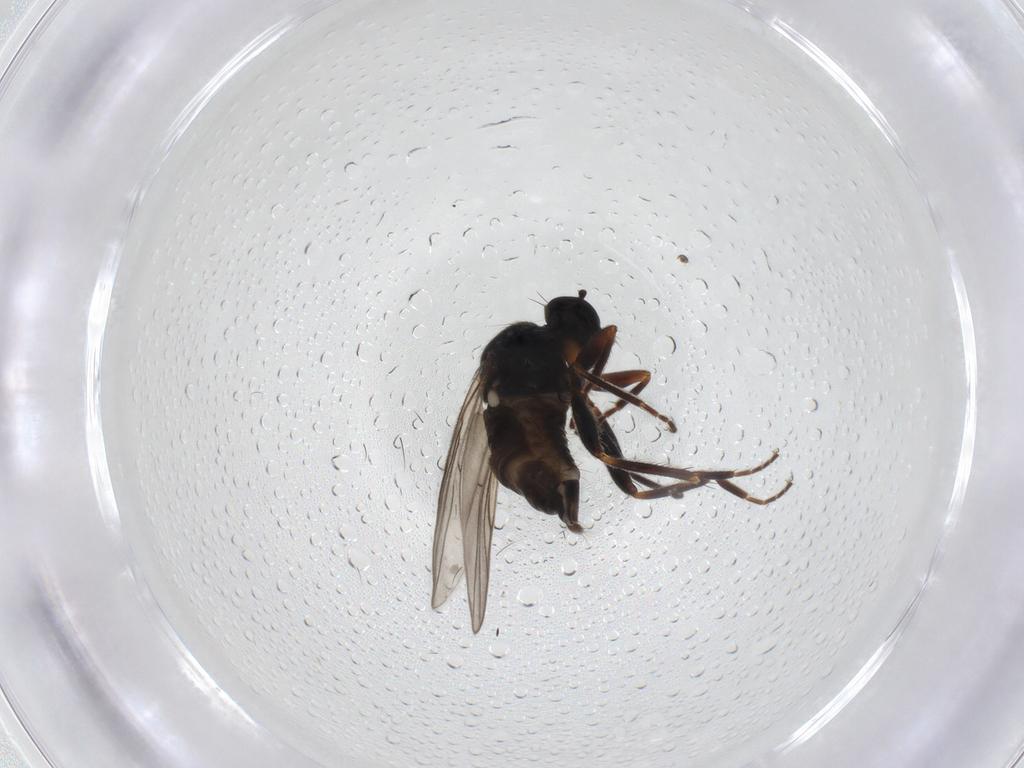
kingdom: Animalia
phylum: Arthropoda
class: Insecta
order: Diptera
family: Hybotidae
